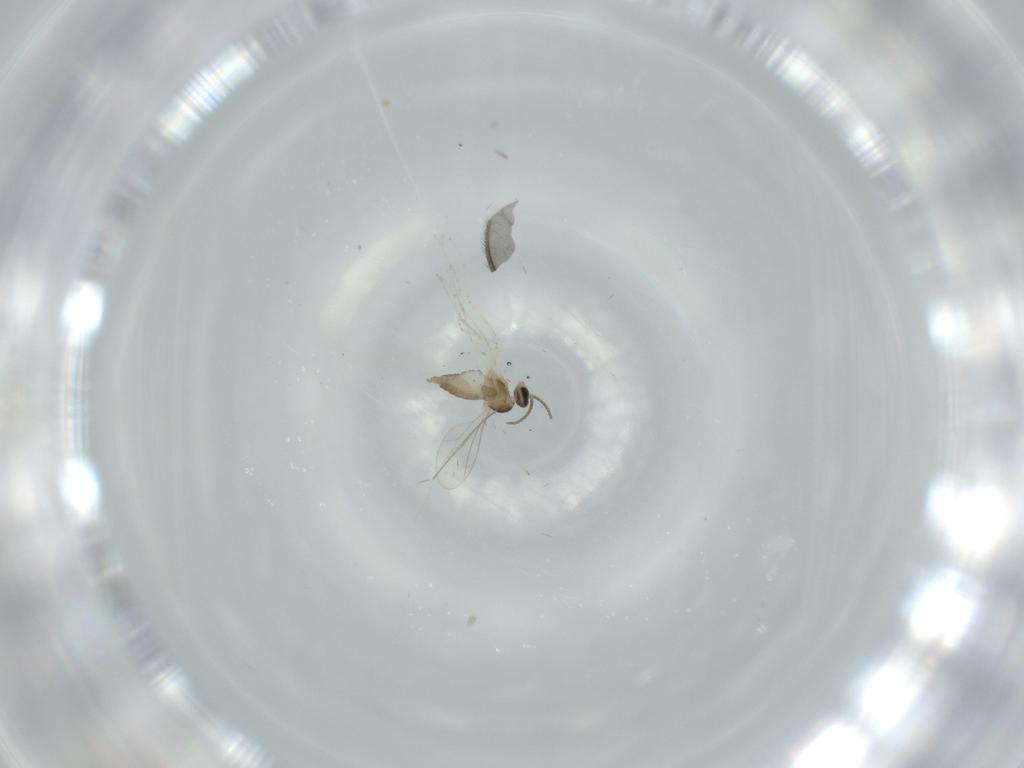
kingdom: Animalia
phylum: Arthropoda
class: Insecta
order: Diptera
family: Cecidomyiidae
